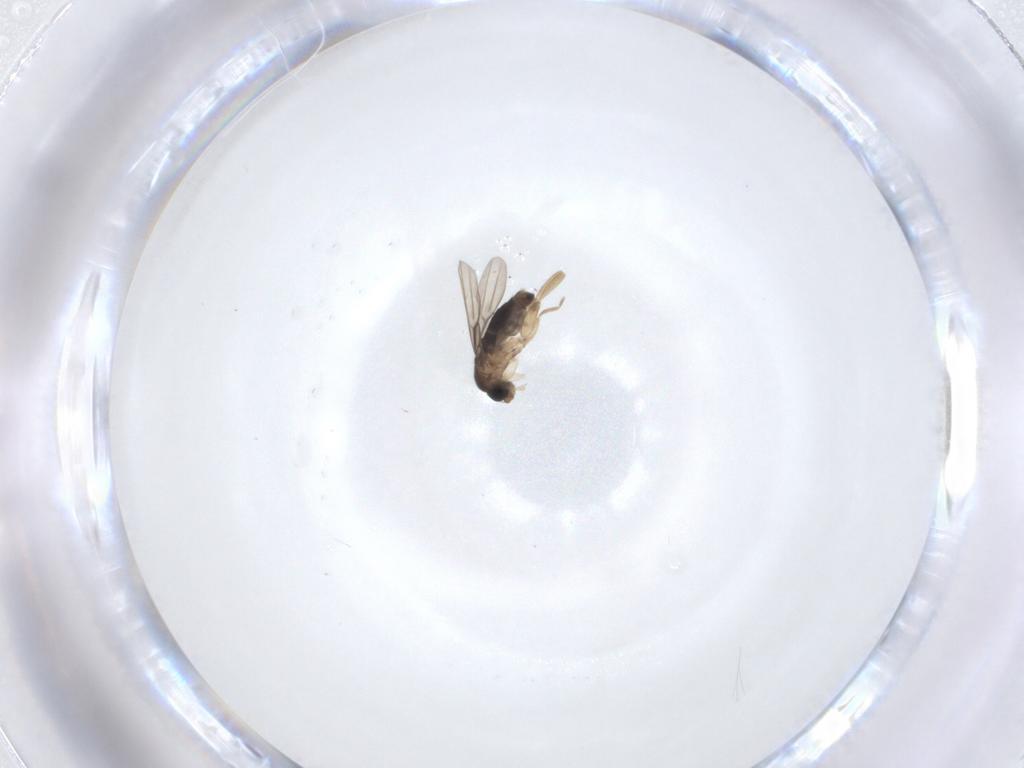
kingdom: Animalia
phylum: Arthropoda
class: Insecta
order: Diptera
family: Phoridae
